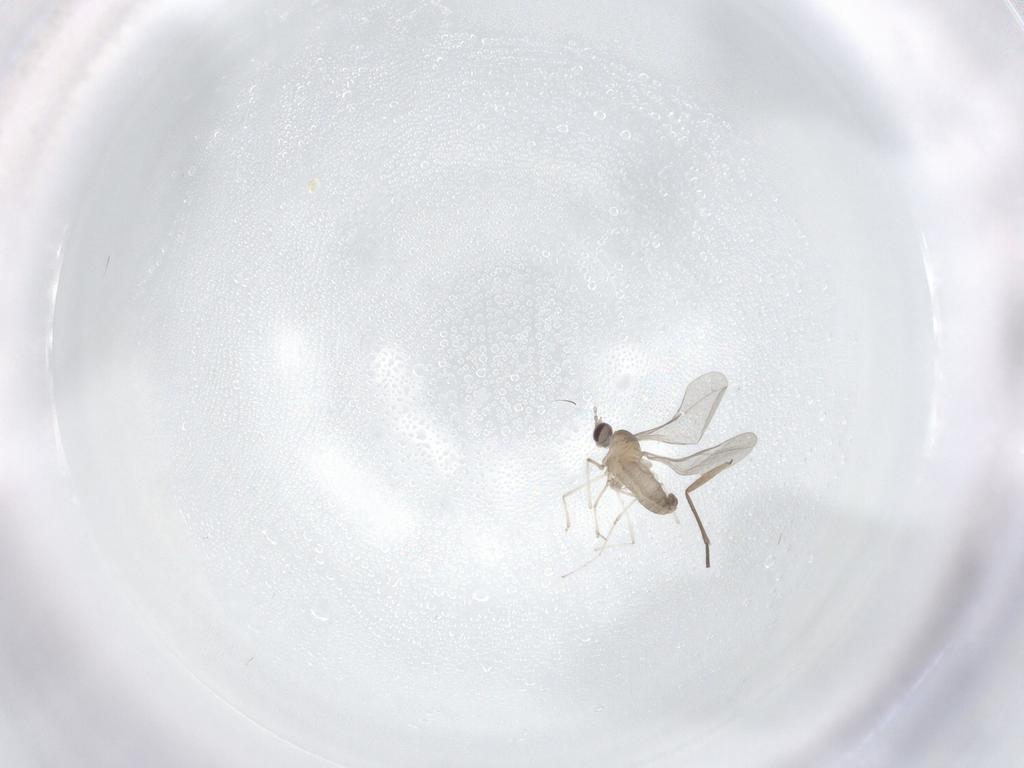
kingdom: Animalia
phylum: Arthropoda
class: Insecta
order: Diptera
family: Sciaridae
